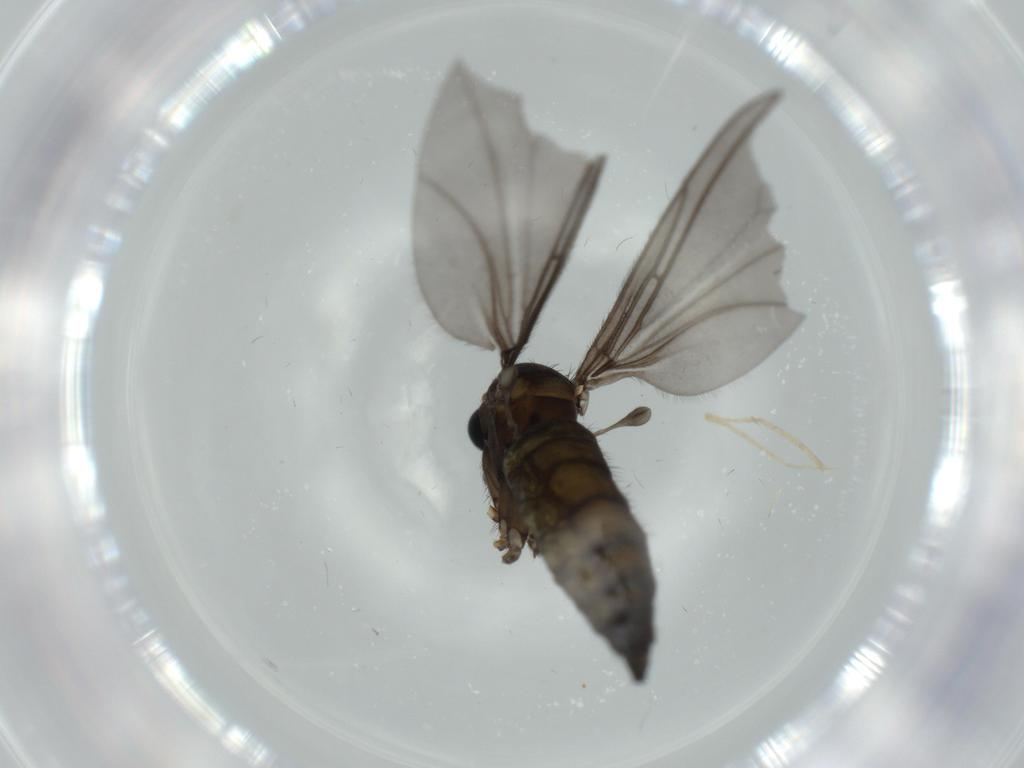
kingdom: Animalia
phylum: Arthropoda
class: Insecta
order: Diptera
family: Sciaridae
